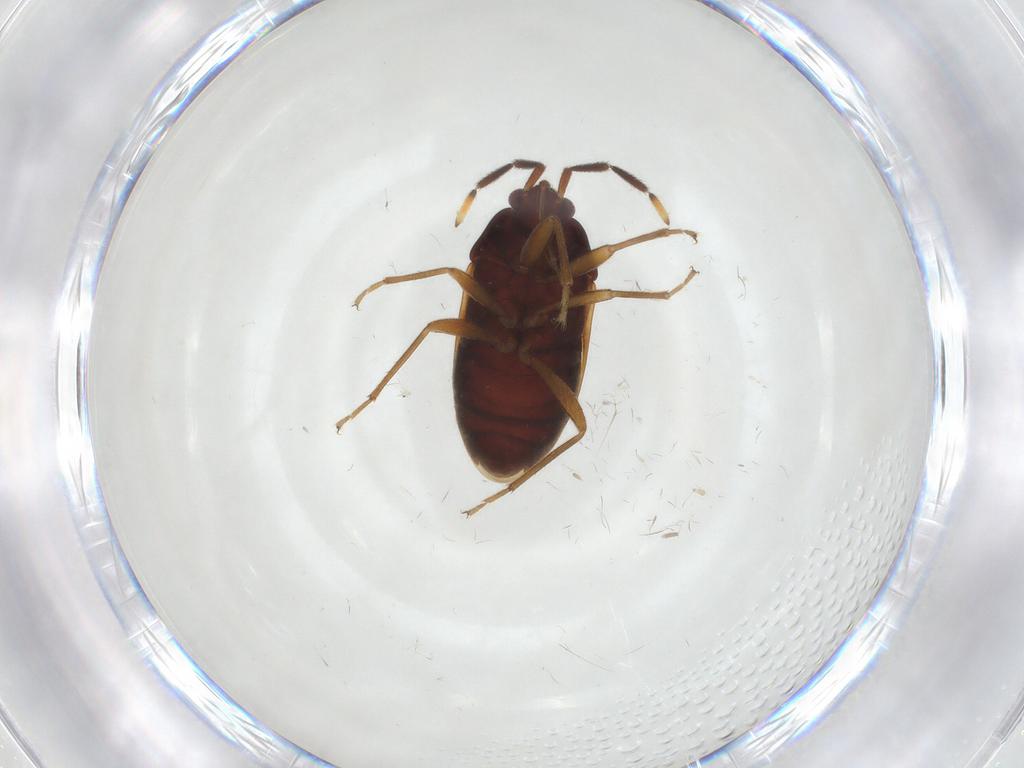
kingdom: Animalia
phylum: Arthropoda
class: Insecta
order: Hemiptera
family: Rhyparochromidae
